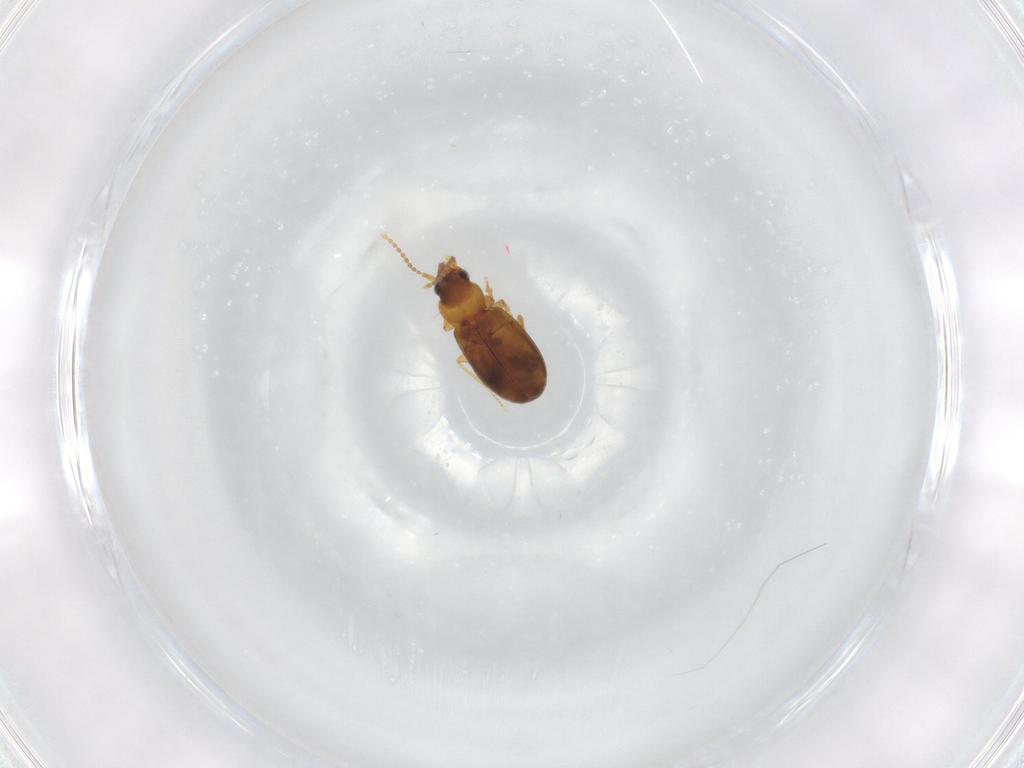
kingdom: Animalia
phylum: Arthropoda
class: Insecta
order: Coleoptera
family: Carabidae
